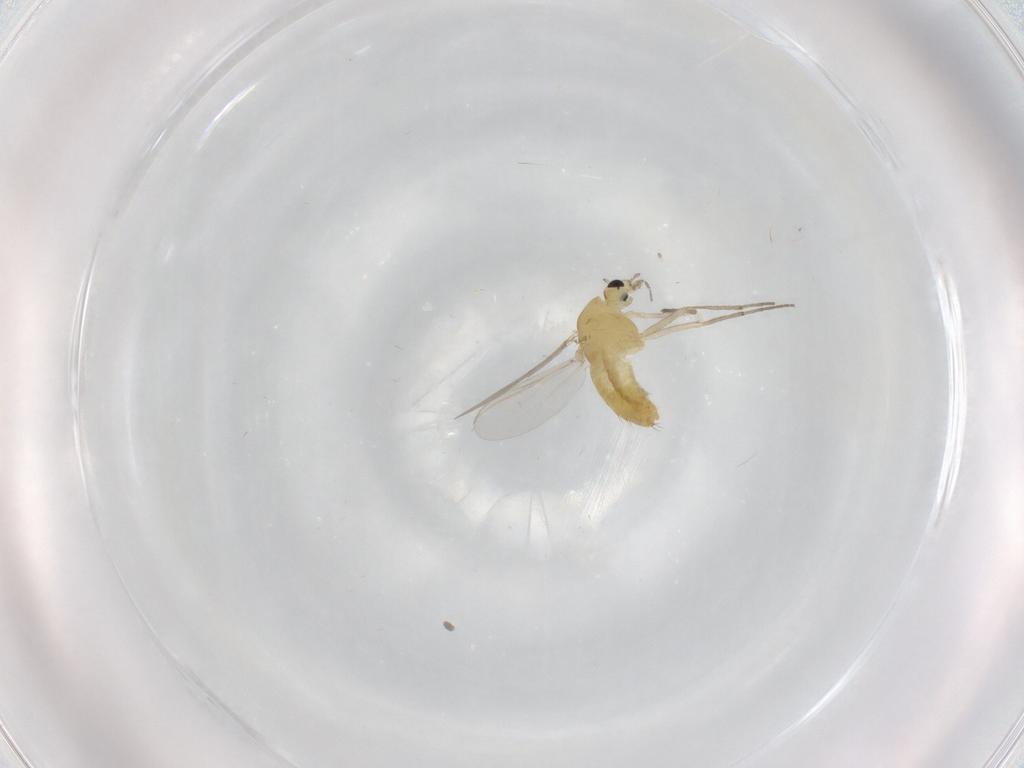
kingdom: Animalia
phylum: Arthropoda
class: Insecta
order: Diptera
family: Chironomidae
